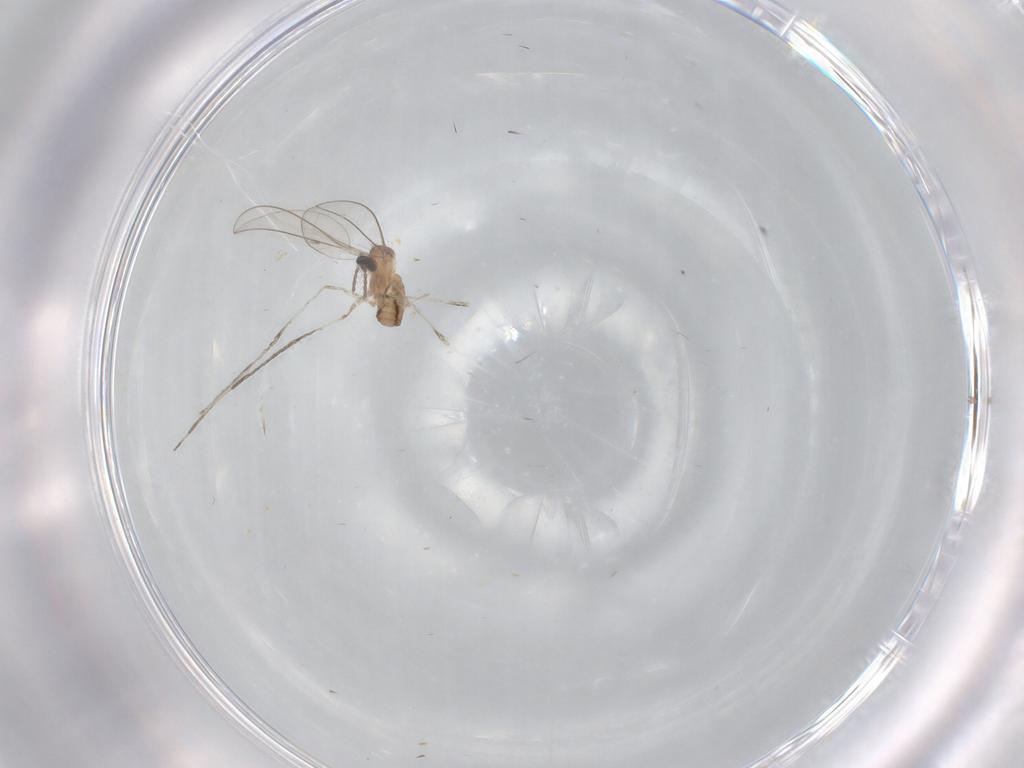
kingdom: Animalia
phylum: Arthropoda
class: Insecta
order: Diptera
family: Cecidomyiidae
